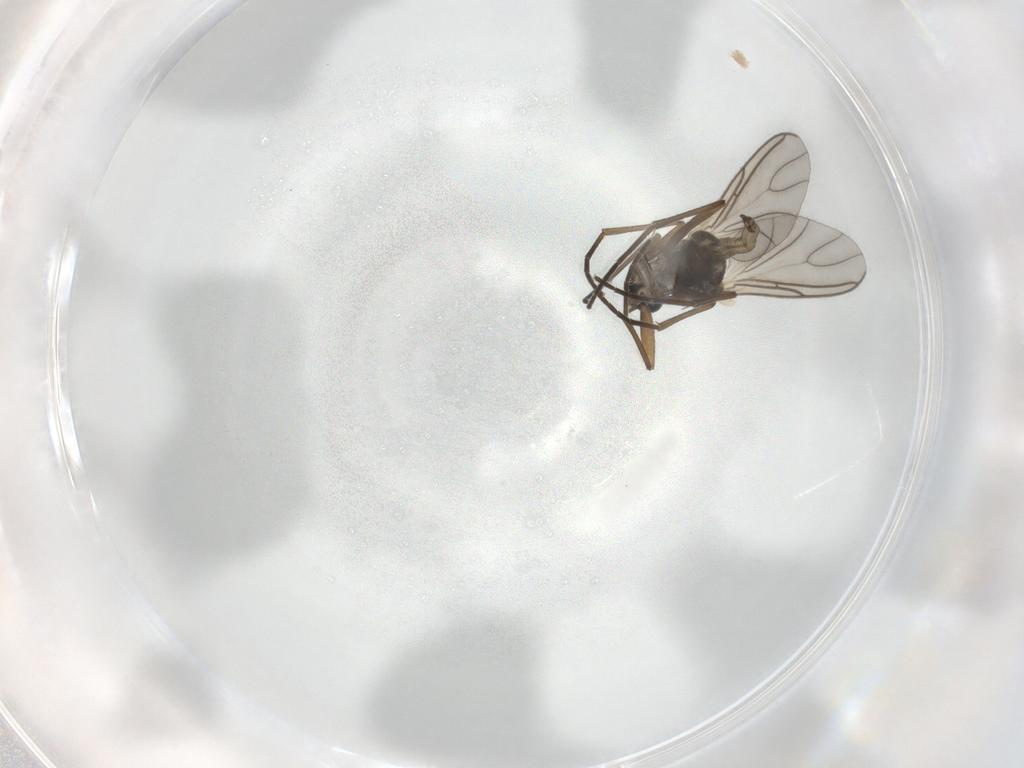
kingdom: Animalia
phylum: Arthropoda
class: Insecta
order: Diptera
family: Sciaridae
